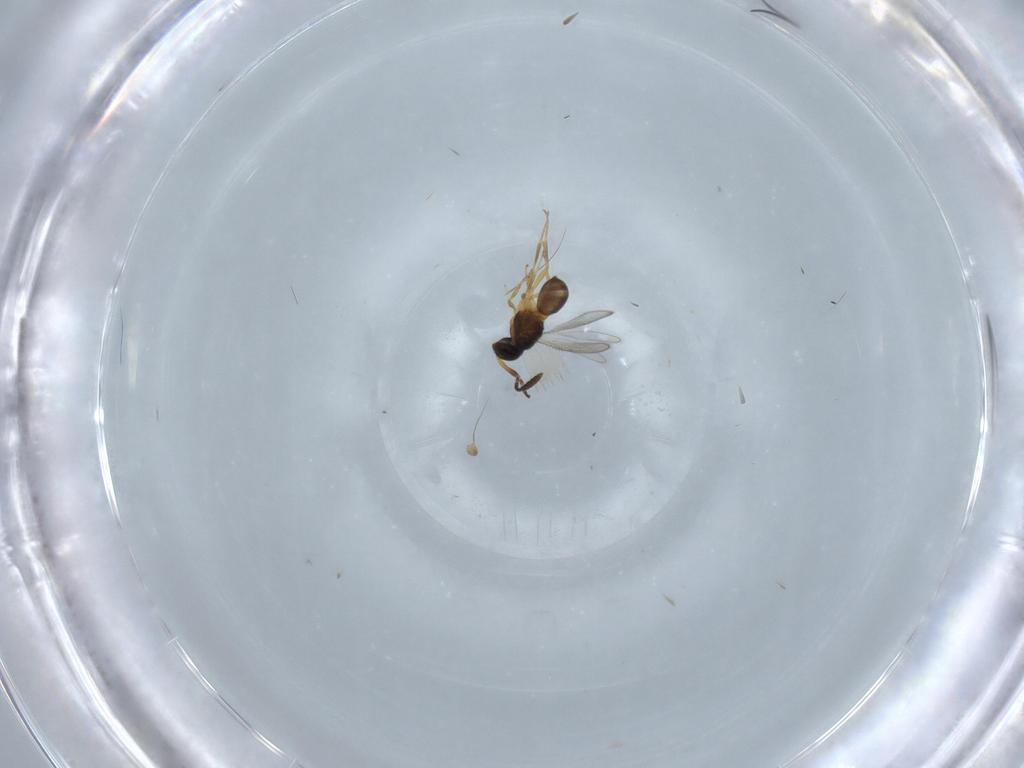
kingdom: Animalia
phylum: Arthropoda
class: Insecta
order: Hymenoptera
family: Scelionidae
